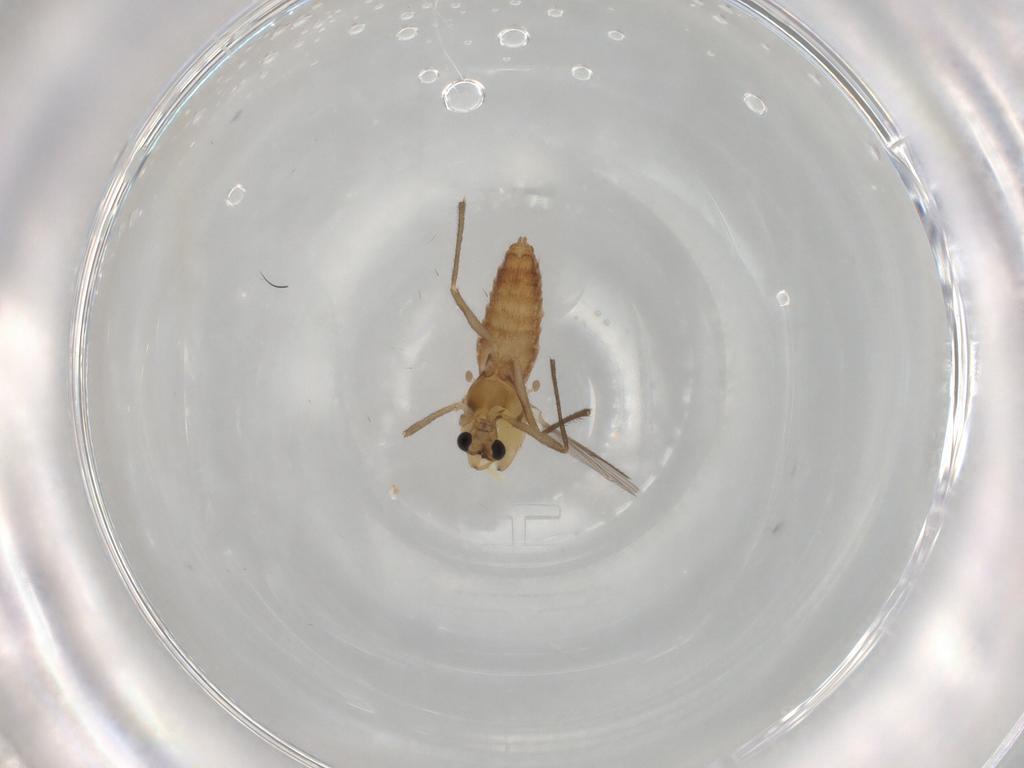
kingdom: Animalia
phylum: Arthropoda
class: Insecta
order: Diptera
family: Chironomidae
